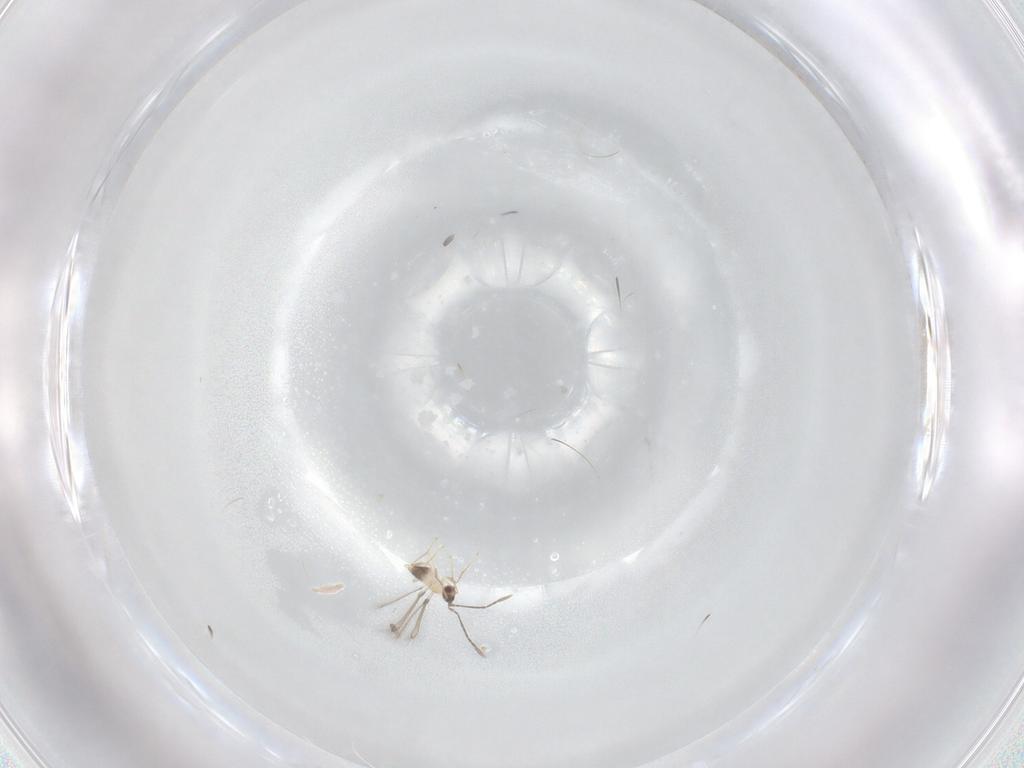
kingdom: Animalia
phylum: Arthropoda
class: Insecta
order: Hymenoptera
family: Mymaridae
